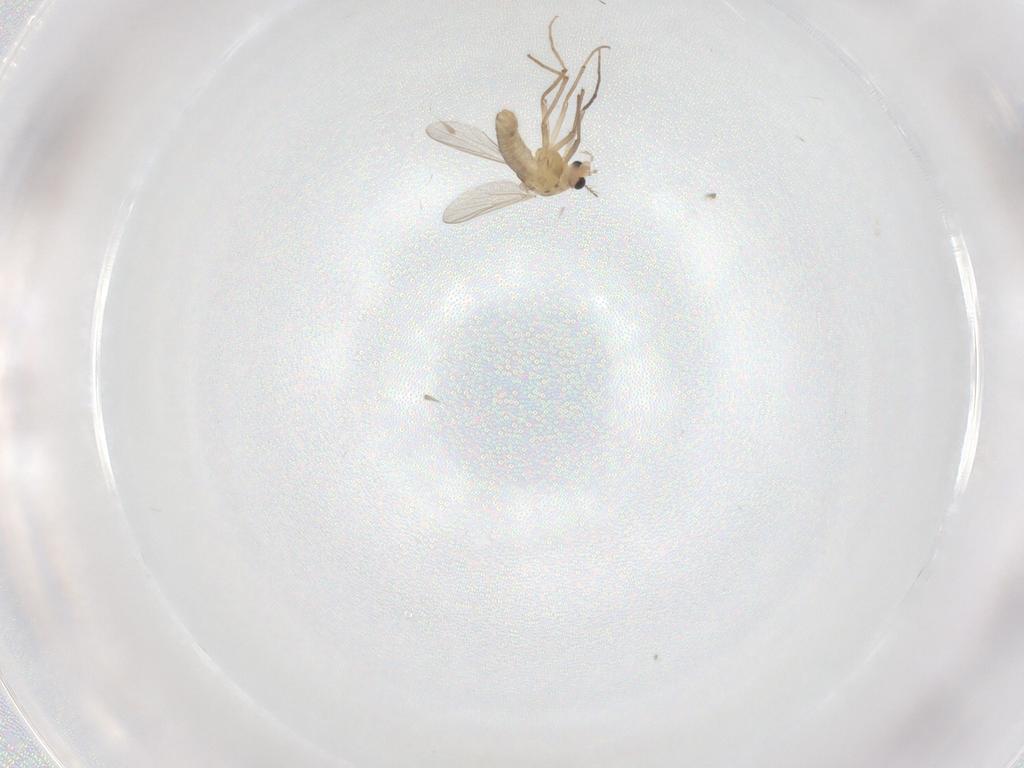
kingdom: Animalia
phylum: Arthropoda
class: Insecta
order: Diptera
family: Chironomidae
